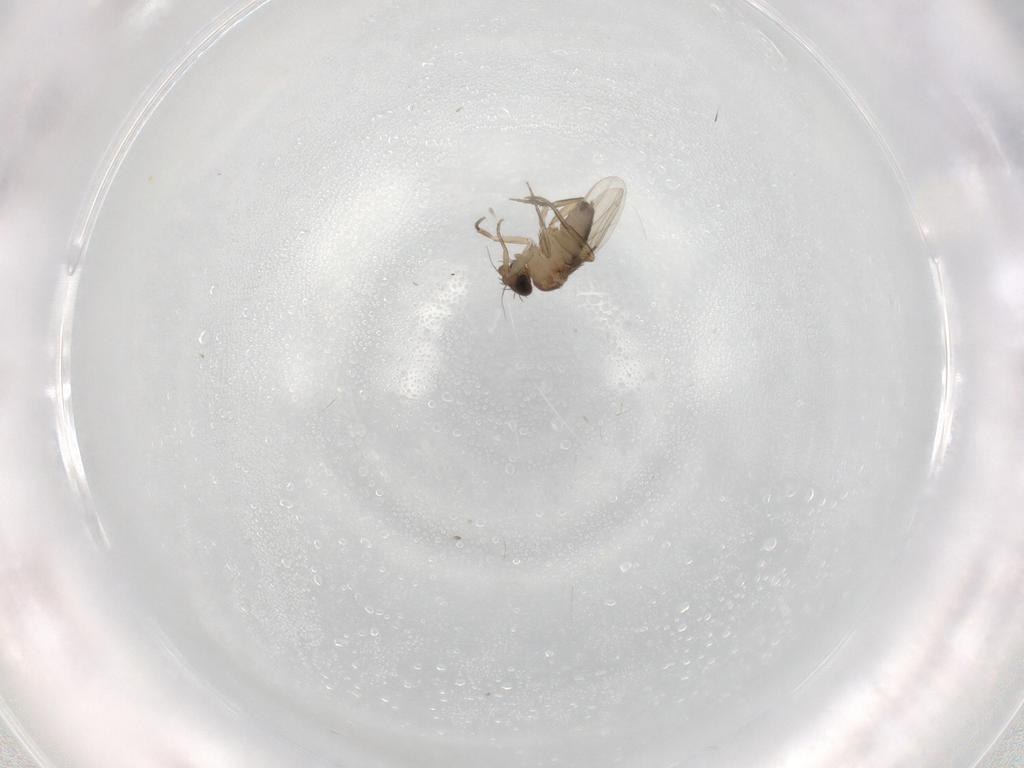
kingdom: Animalia
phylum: Arthropoda
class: Insecta
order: Diptera
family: Phoridae
